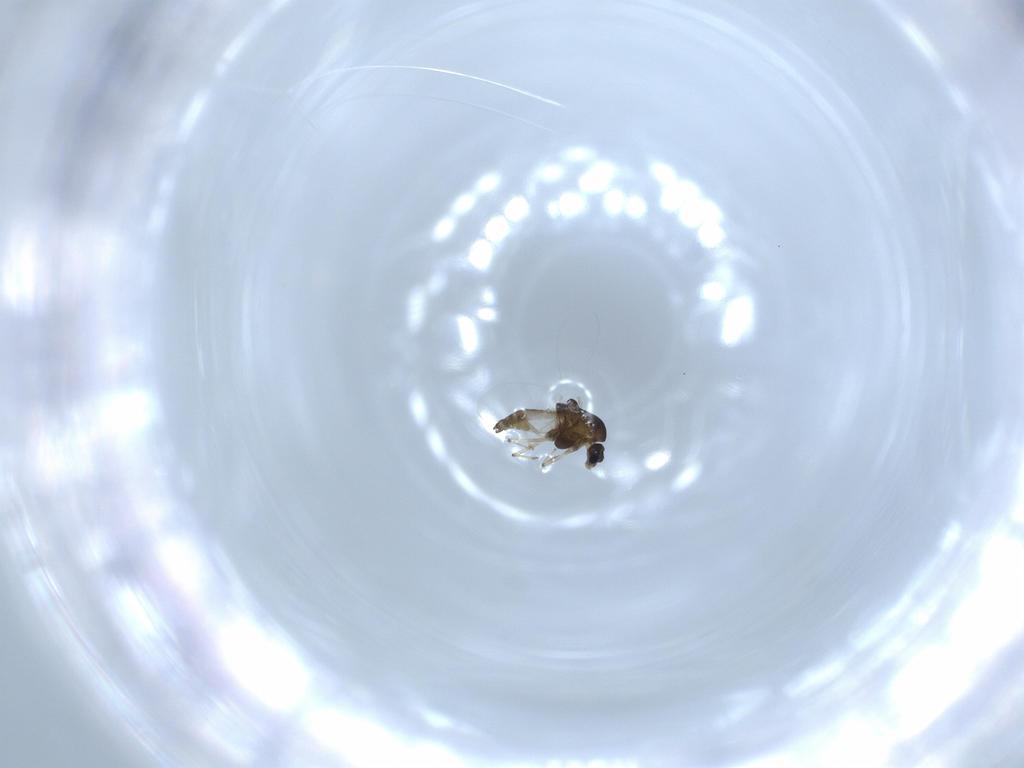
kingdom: Animalia
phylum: Arthropoda
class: Insecta
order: Diptera
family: Chironomidae
